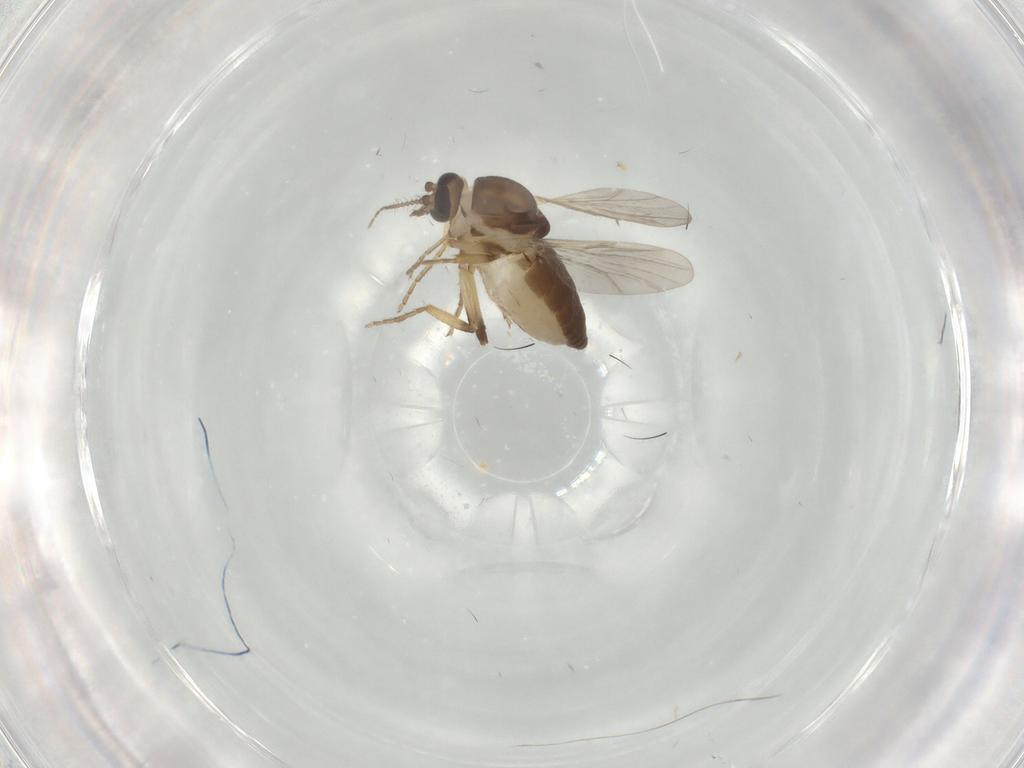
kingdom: Animalia
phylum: Arthropoda
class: Insecta
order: Diptera
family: Ceratopogonidae
